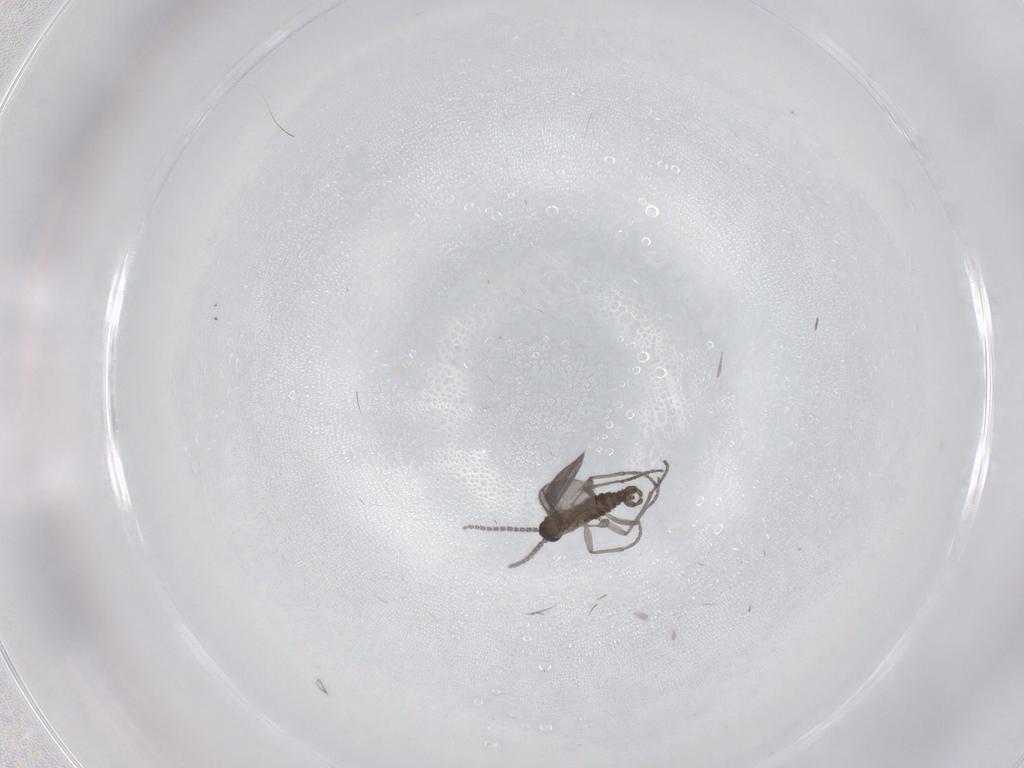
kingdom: Animalia
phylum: Arthropoda
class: Insecta
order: Diptera
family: Sciaridae
